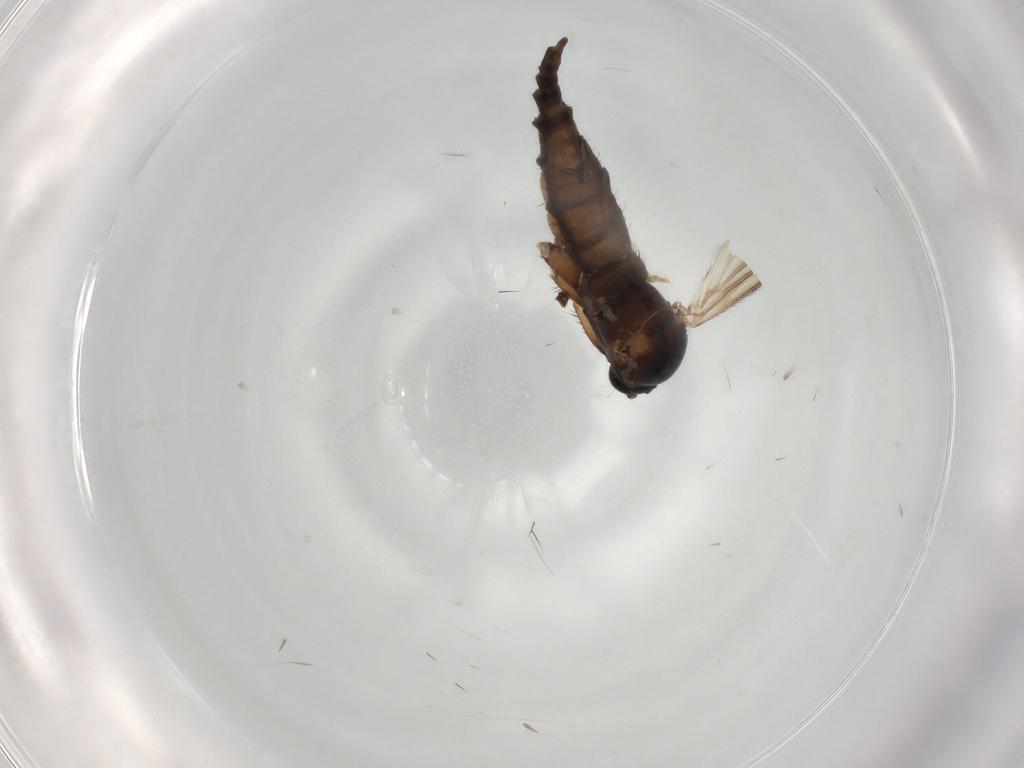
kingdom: Animalia
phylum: Arthropoda
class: Insecta
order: Diptera
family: Sciaridae
